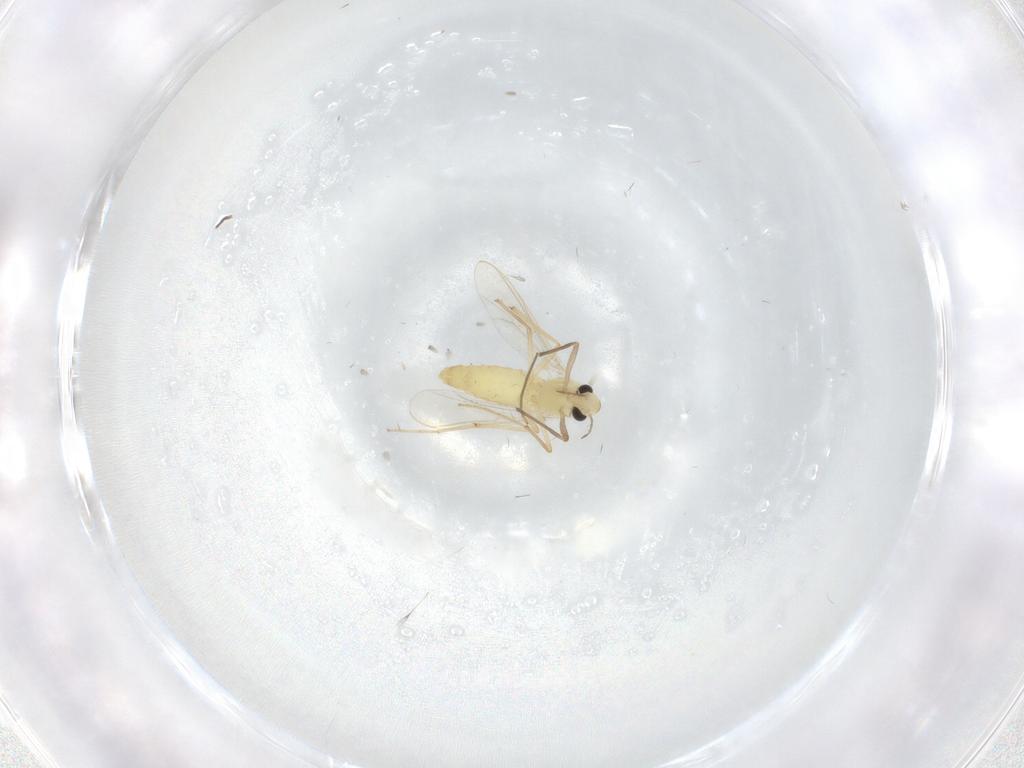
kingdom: Animalia
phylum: Arthropoda
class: Insecta
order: Diptera
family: Chironomidae
